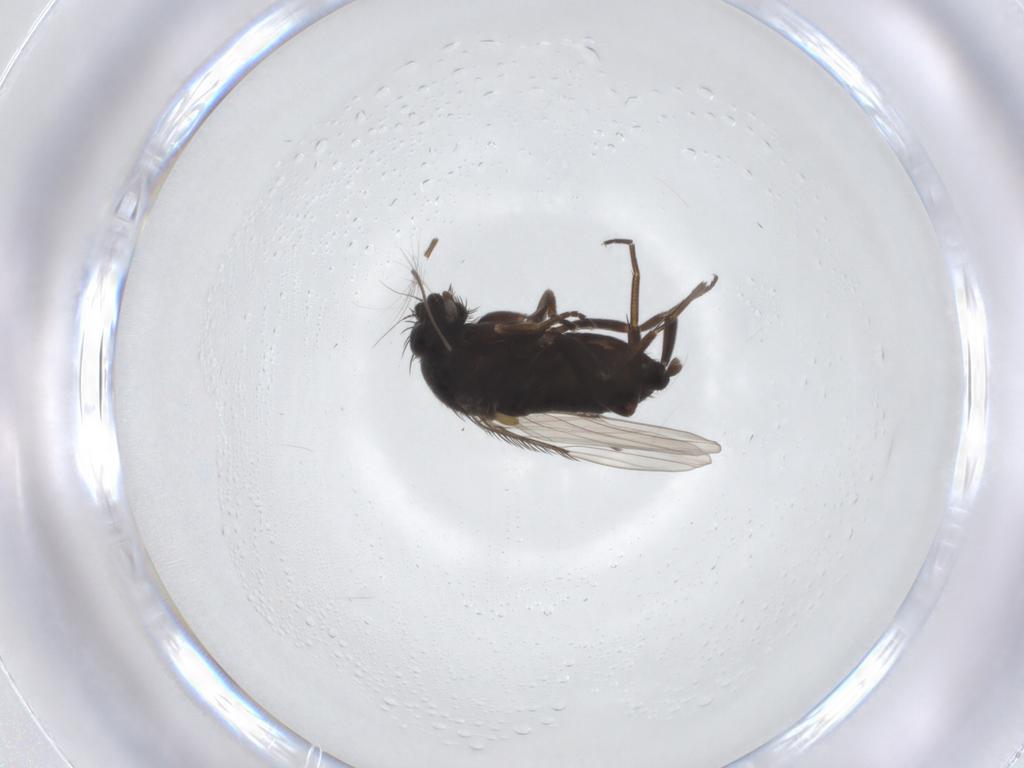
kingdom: Animalia
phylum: Arthropoda
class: Insecta
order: Diptera
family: Phoridae
